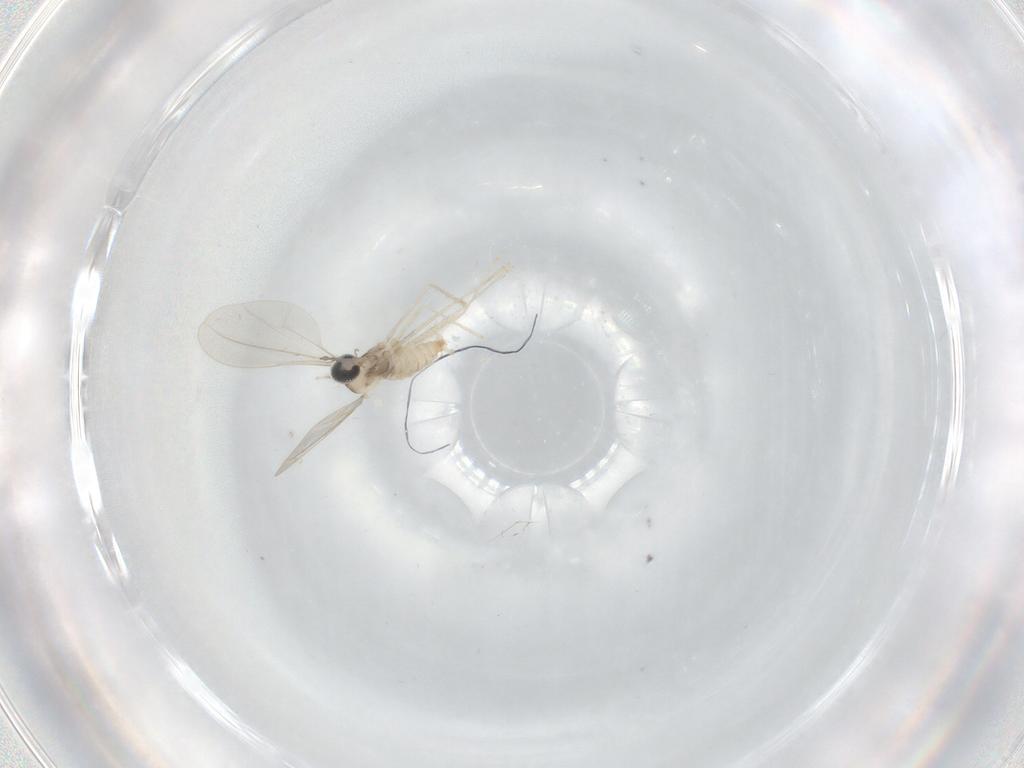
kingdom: Animalia
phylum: Arthropoda
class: Insecta
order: Diptera
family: Cecidomyiidae
